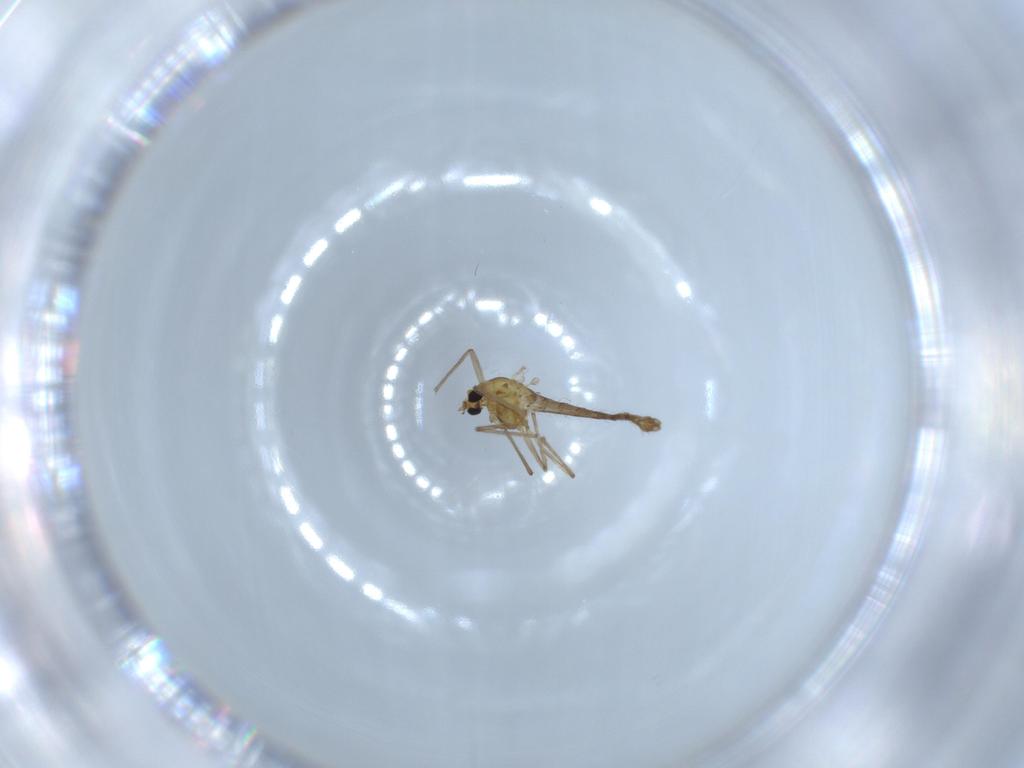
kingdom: Animalia
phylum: Arthropoda
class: Insecta
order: Diptera
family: Chironomidae
